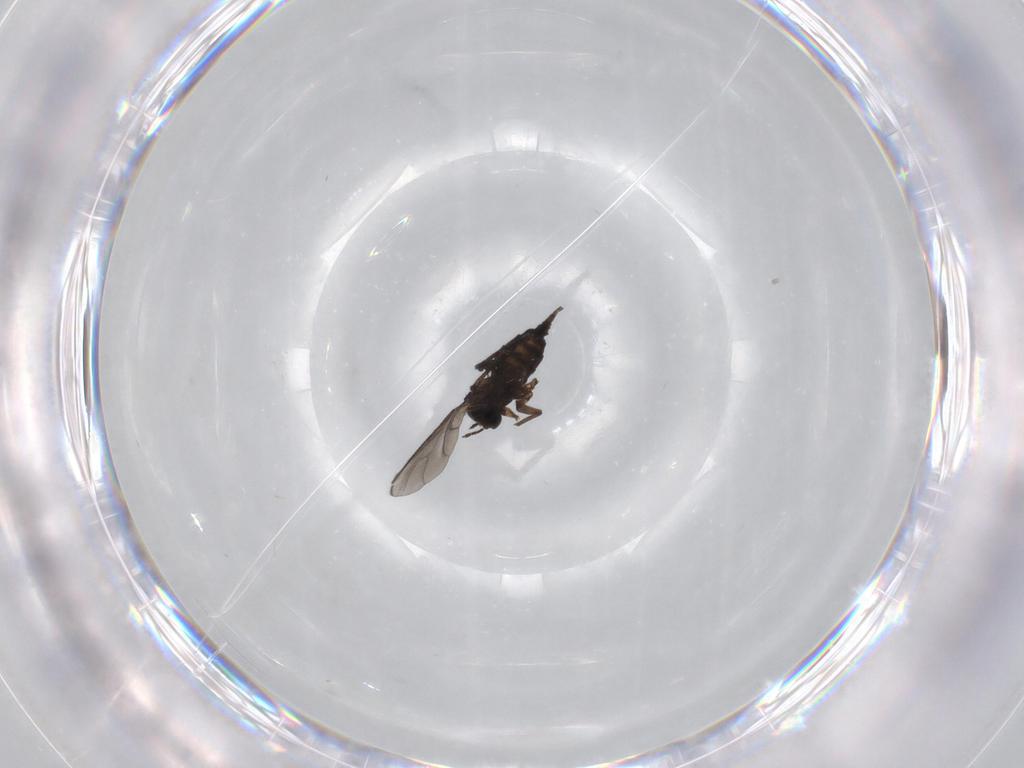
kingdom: Animalia
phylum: Arthropoda
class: Insecta
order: Diptera
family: Sciaridae
